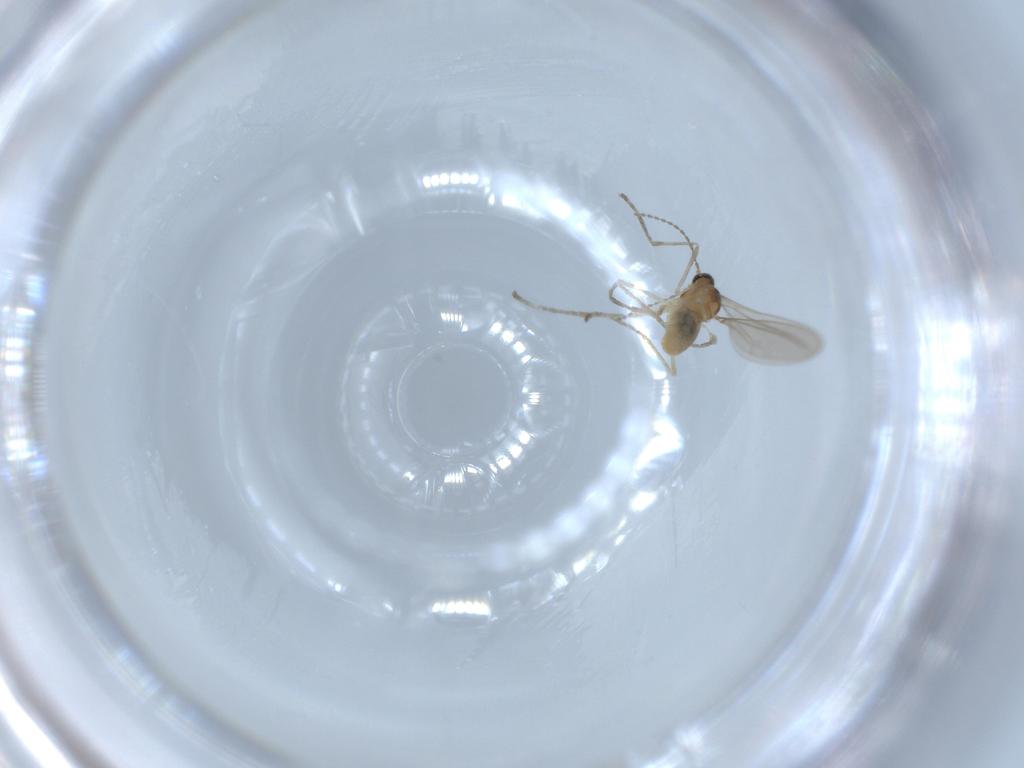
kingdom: Animalia
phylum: Arthropoda
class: Insecta
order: Diptera
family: Cecidomyiidae
